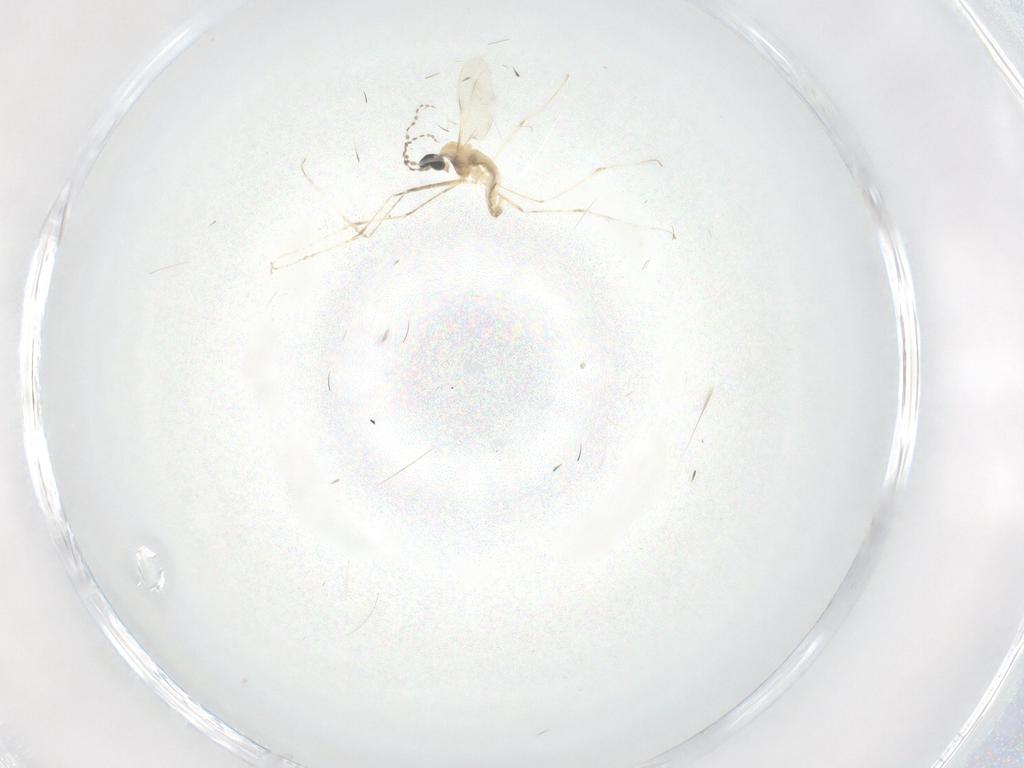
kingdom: Animalia
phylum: Arthropoda
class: Insecta
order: Diptera
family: Cecidomyiidae
